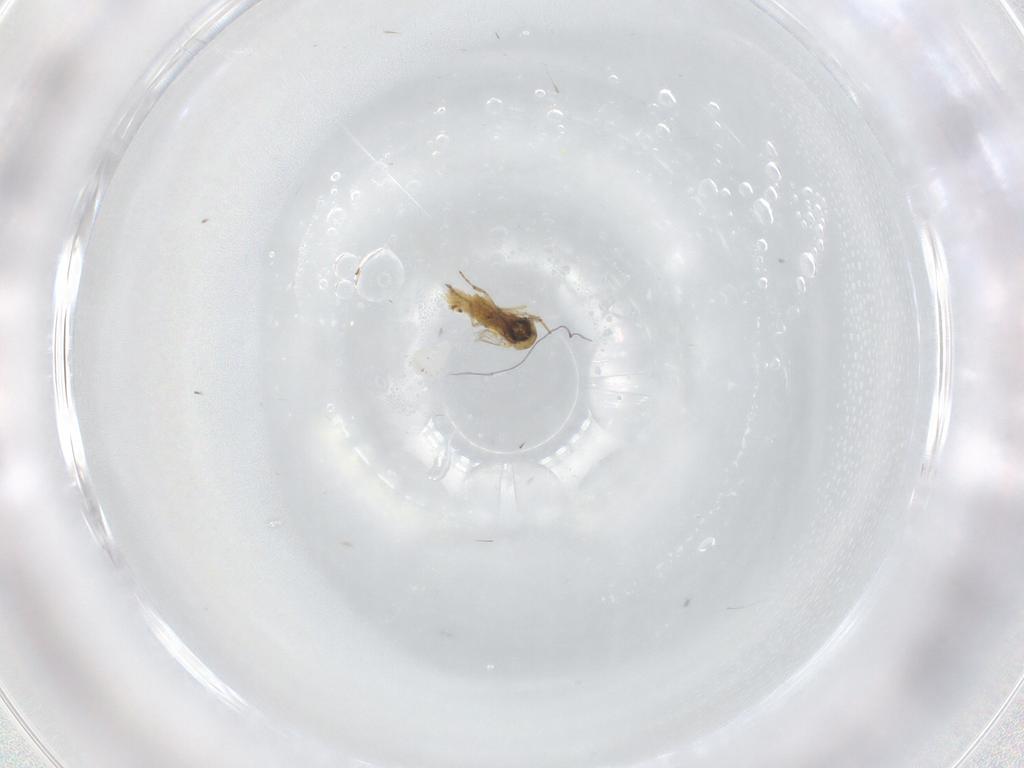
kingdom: Animalia
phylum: Arthropoda
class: Insecta
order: Diptera
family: Psychodidae
